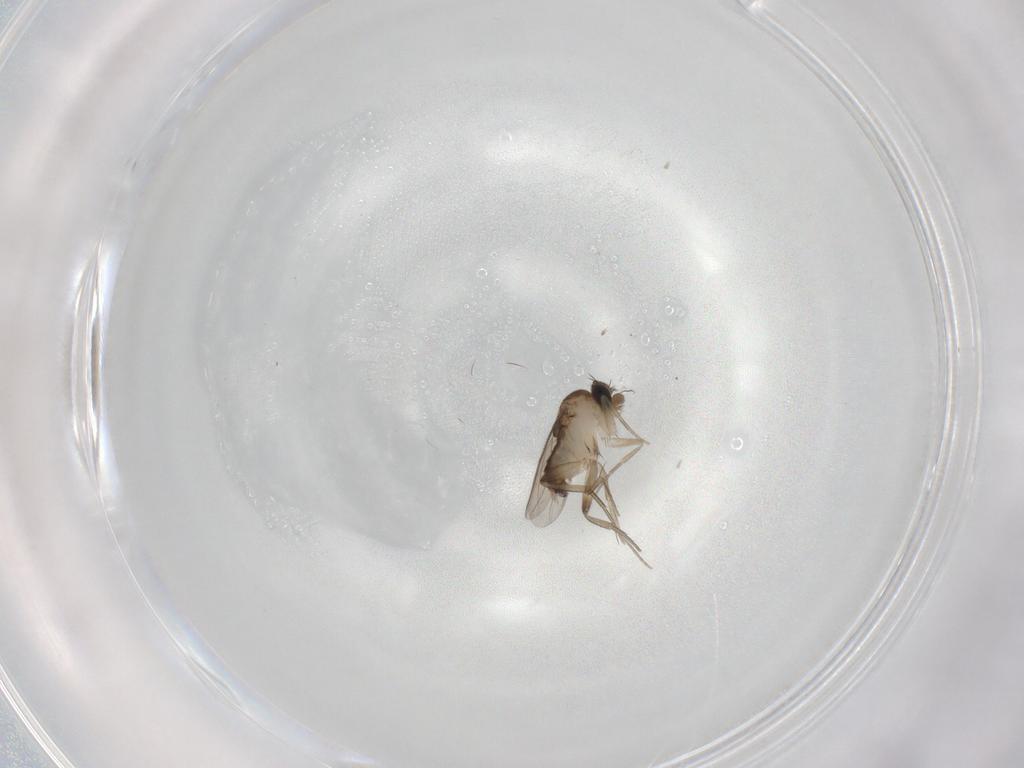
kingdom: Animalia
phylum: Arthropoda
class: Insecta
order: Diptera
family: Phoridae
